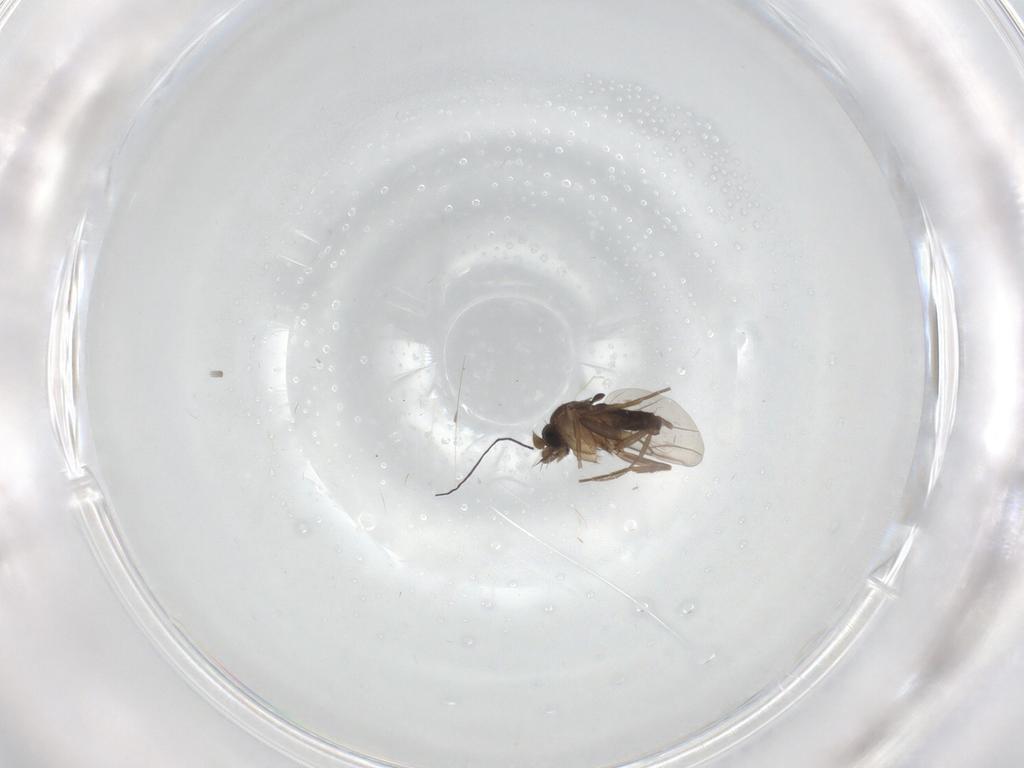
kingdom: Animalia
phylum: Arthropoda
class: Insecta
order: Diptera
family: Phoridae
